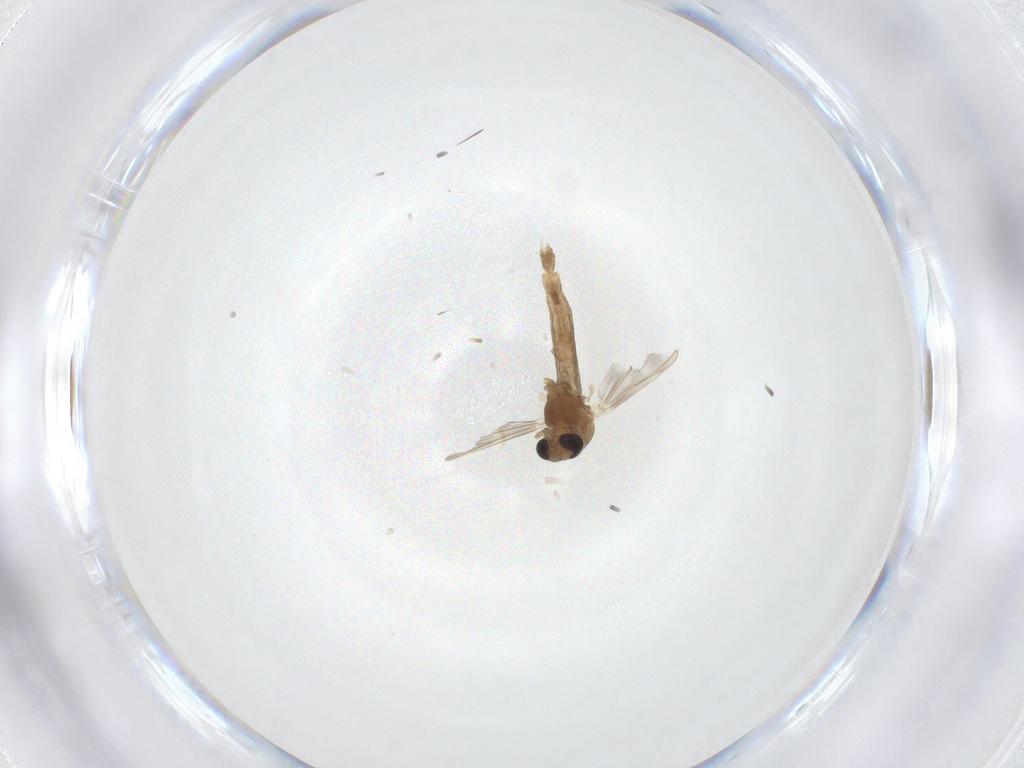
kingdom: Animalia
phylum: Arthropoda
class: Insecta
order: Diptera
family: Chironomidae
